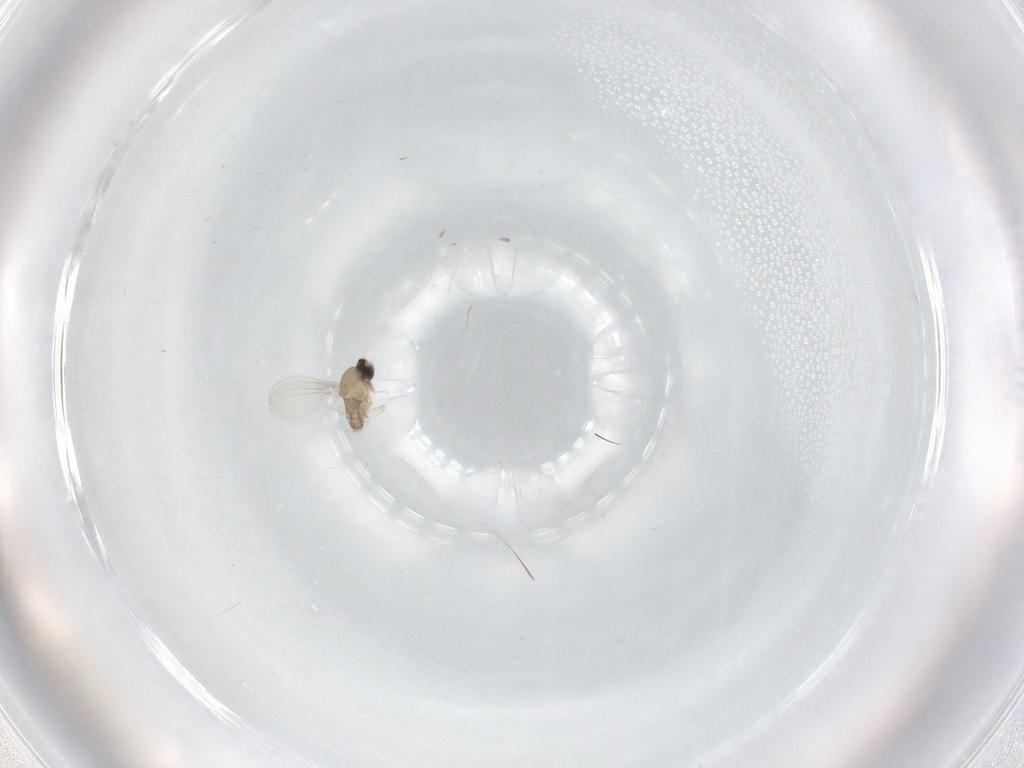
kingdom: Animalia
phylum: Arthropoda
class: Insecta
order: Diptera
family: Cecidomyiidae
